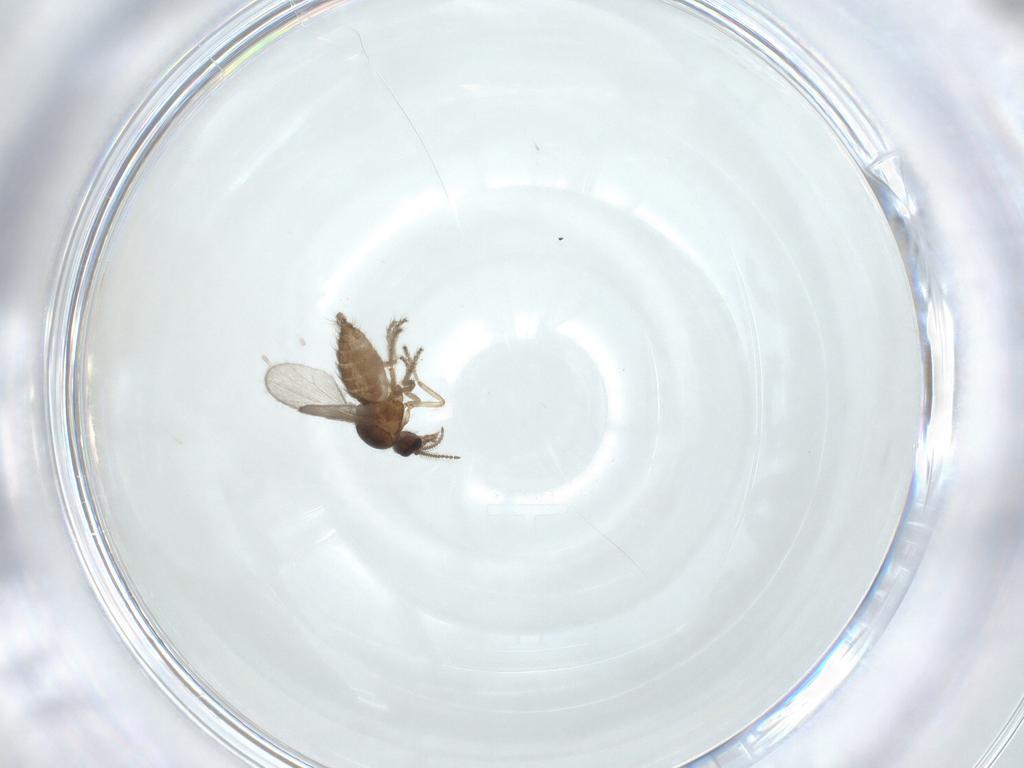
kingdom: Animalia
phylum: Arthropoda
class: Insecta
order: Diptera
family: Ceratopogonidae
